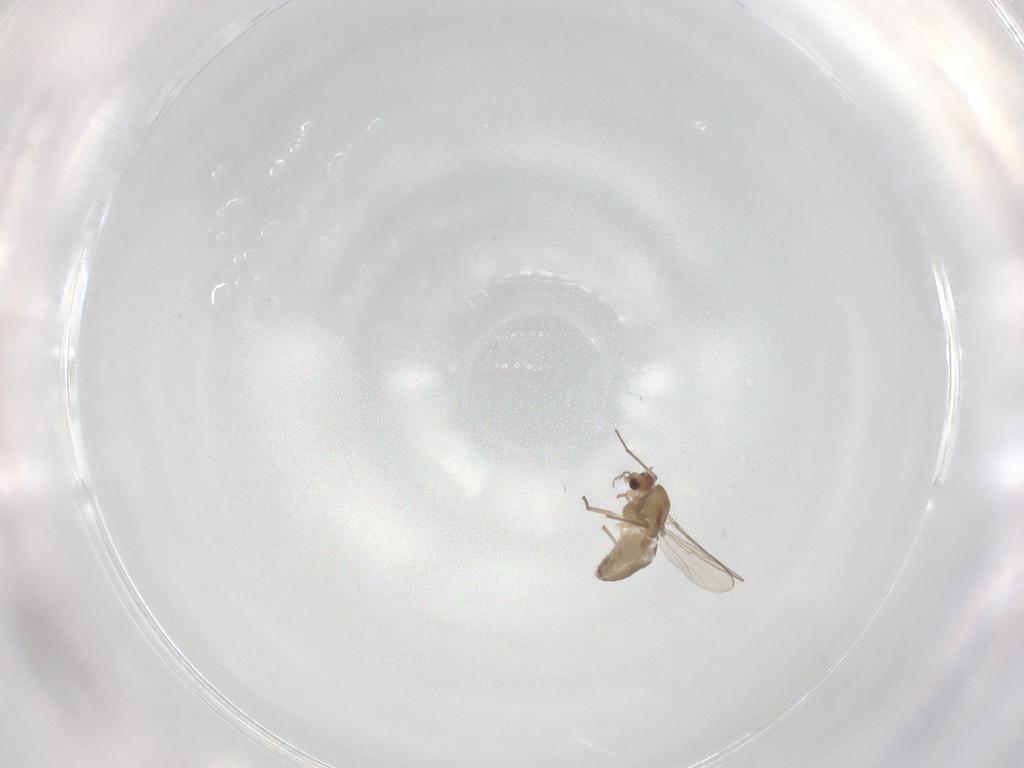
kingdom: Animalia
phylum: Arthropoda
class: Insecta
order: Diptera
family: Chironomidae
